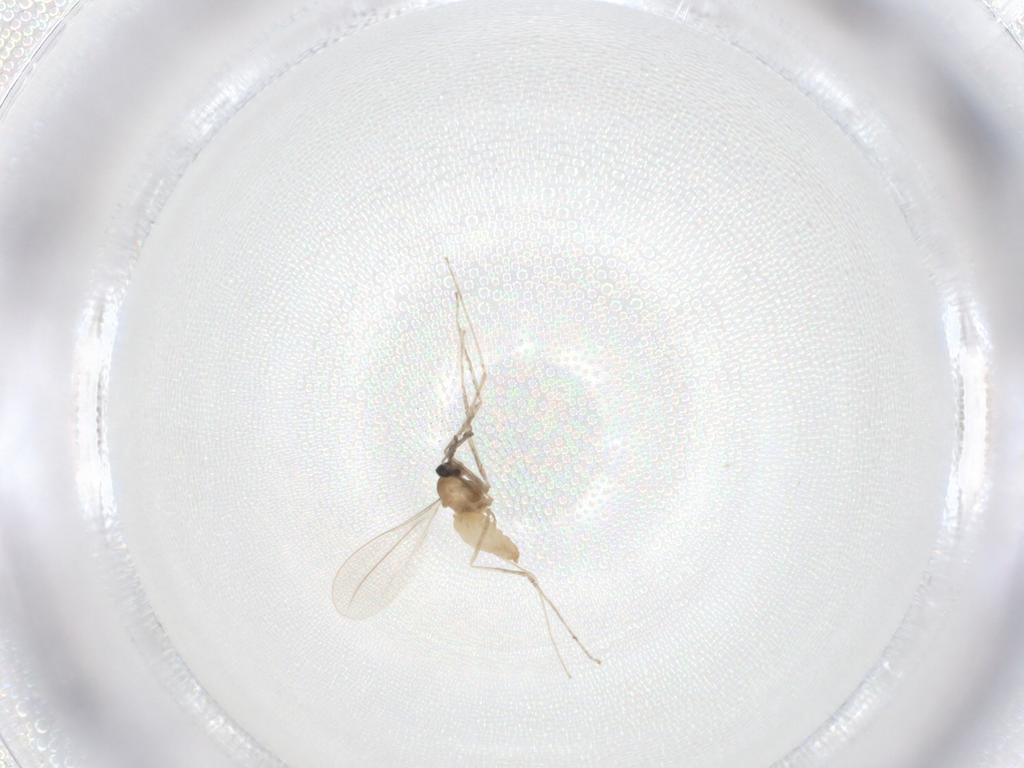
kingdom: Animalia
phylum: Arthropoda
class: Insecta
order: Diptera
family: Cecidomyiidae
